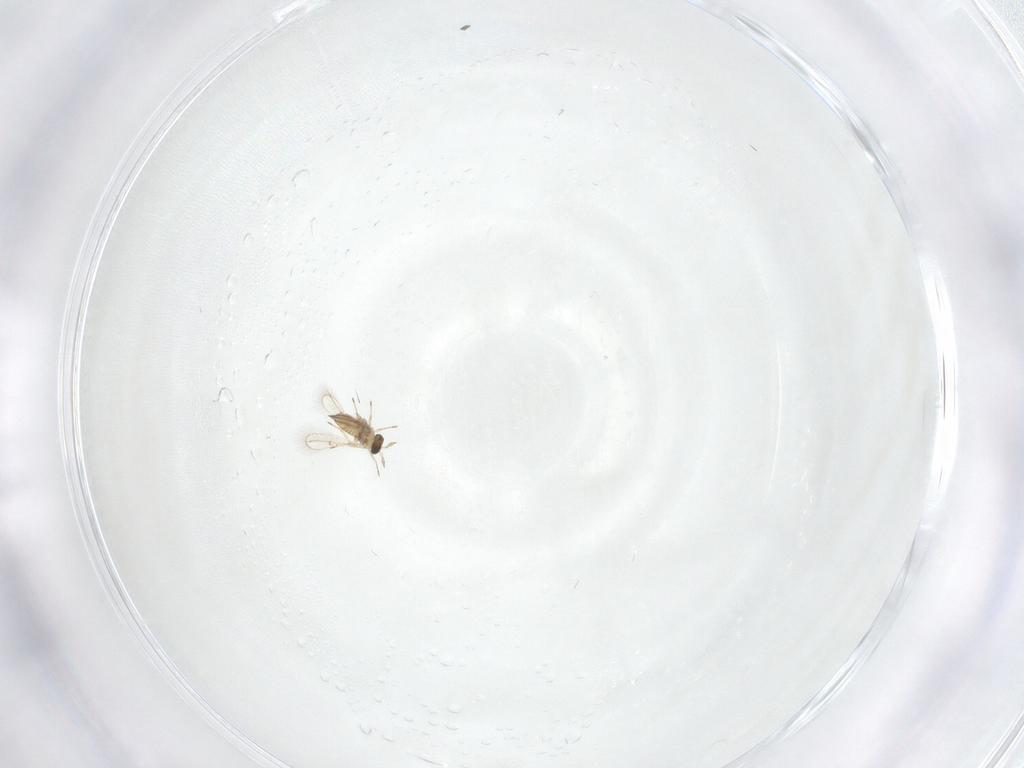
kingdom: Animalia
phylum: Arthropoda
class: Insecta
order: Hymenoptera
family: Trichogrammatidae
